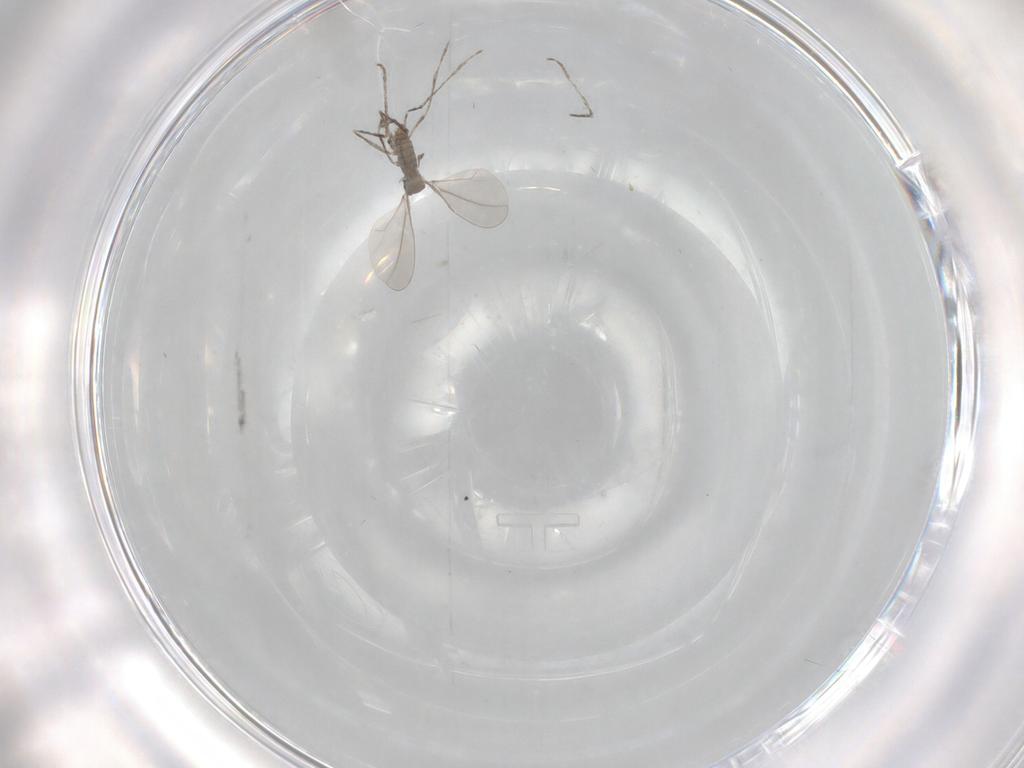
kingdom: Animalia
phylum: Arthropoda
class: Insecta
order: Diptera
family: Cecidomyiidae
